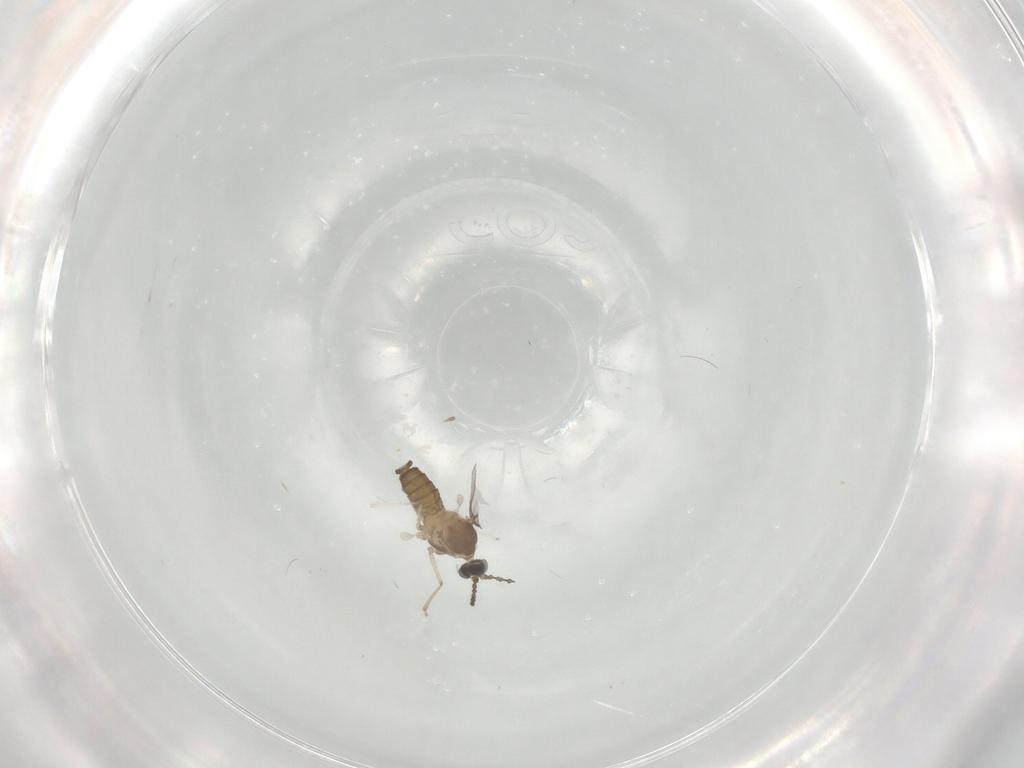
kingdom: Animalia
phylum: Arthropoda
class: Insecta
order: Diptera
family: Cecidomyiidae
